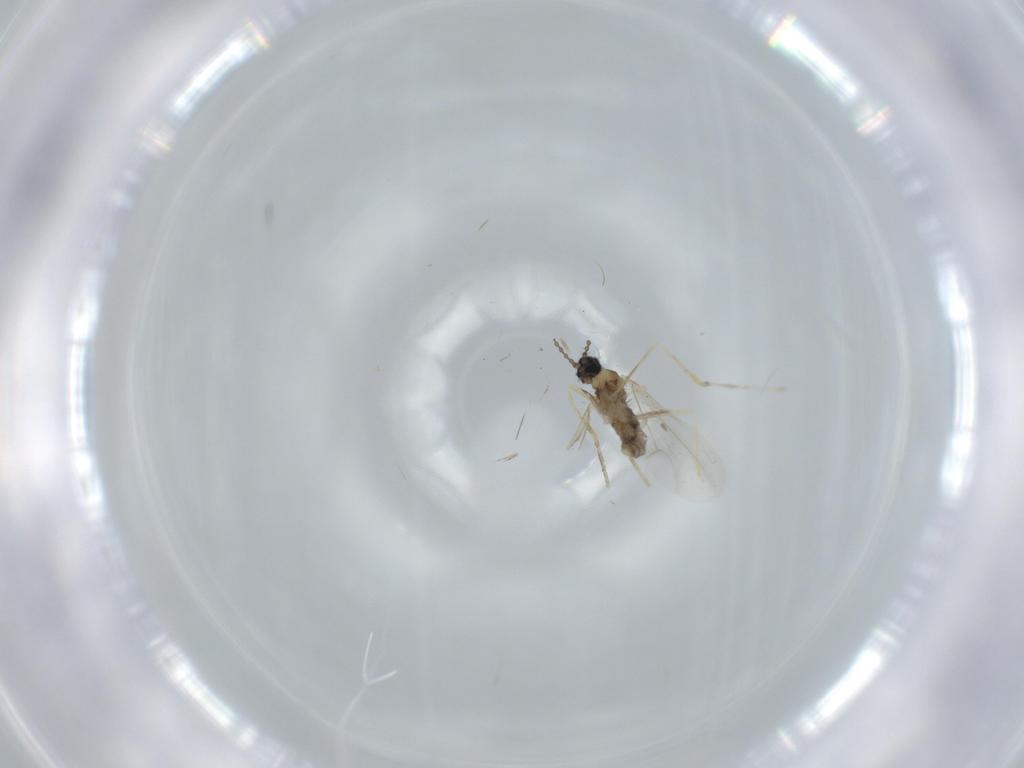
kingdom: Animalia
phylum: Arthropoda
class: Insecta
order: Diptera
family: Cecidomyiidae
